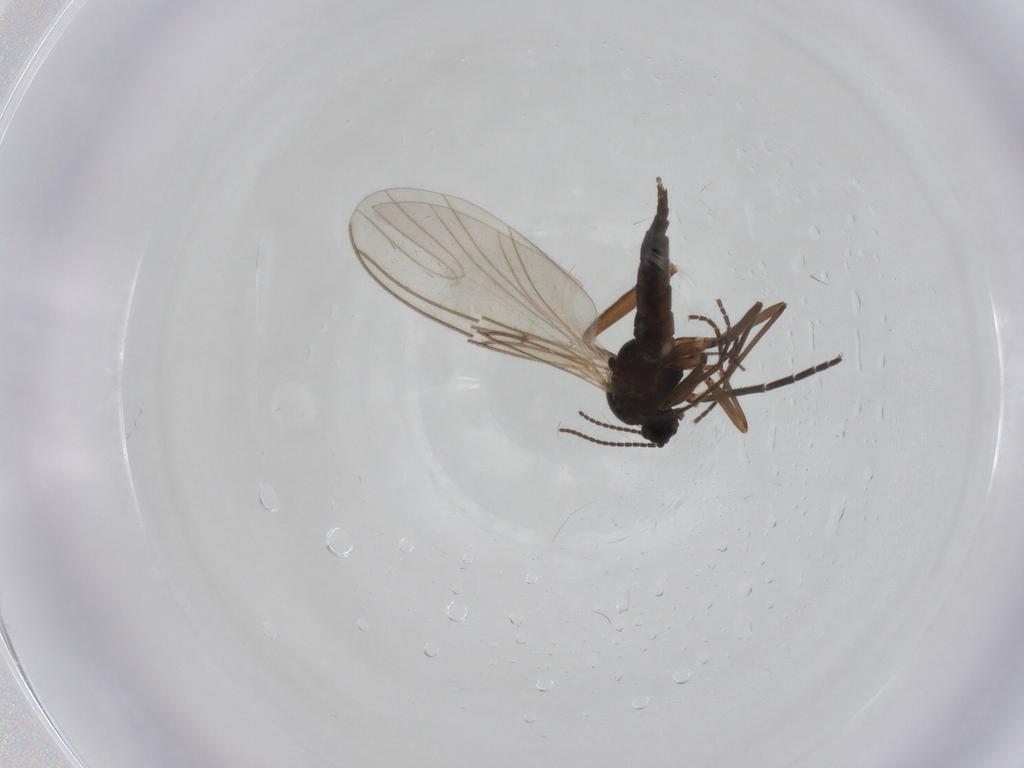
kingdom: Animalia
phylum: Arthropoda
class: Insecta
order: Diptera
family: Sciaridae
